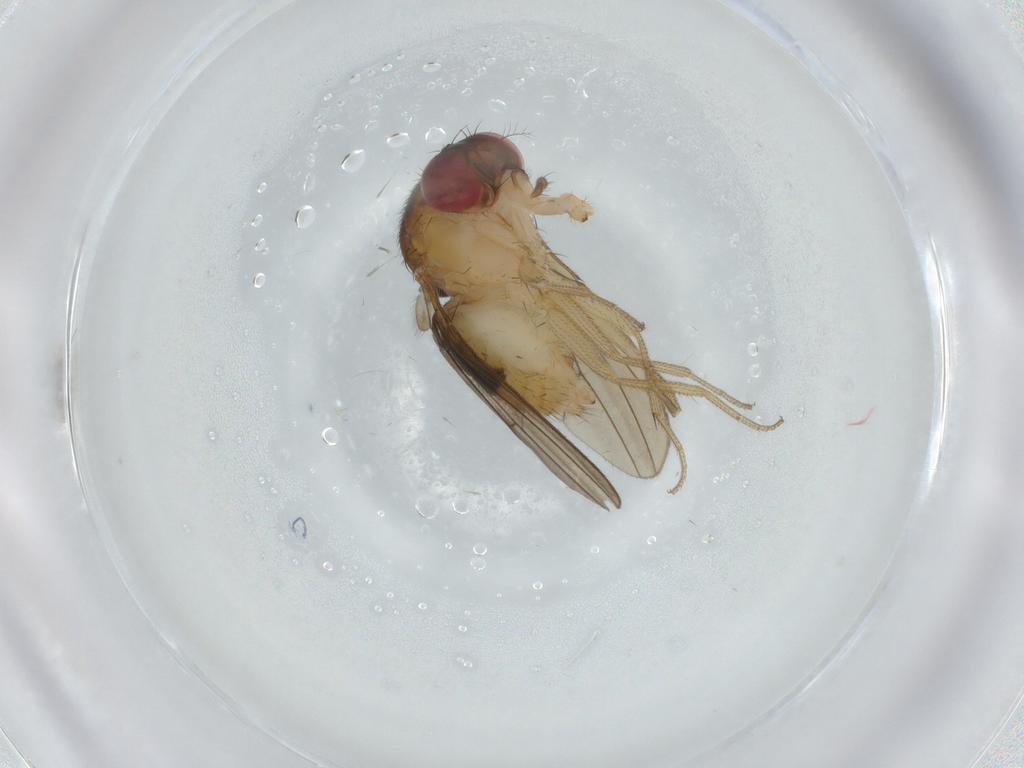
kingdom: Animalia
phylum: Arthropoda
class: Insecta
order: Diptera
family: Drosophilidae
